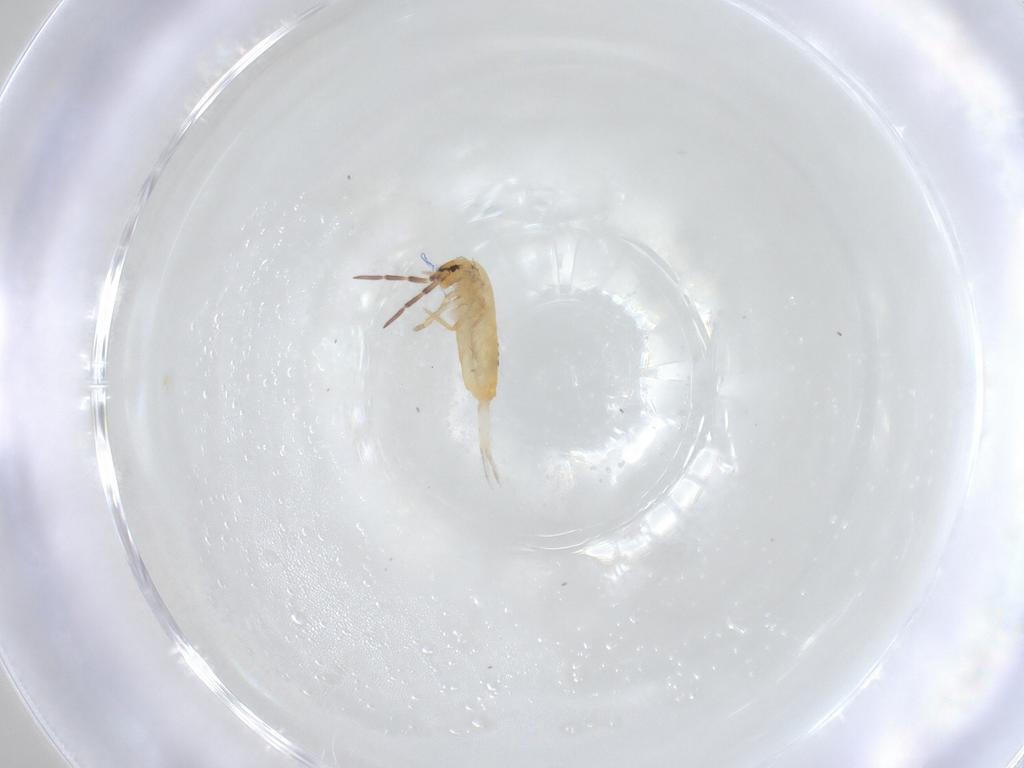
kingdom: Animalia
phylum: Arthropoda
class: Collembola
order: Entomobryomorpha
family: Entomobryidae
